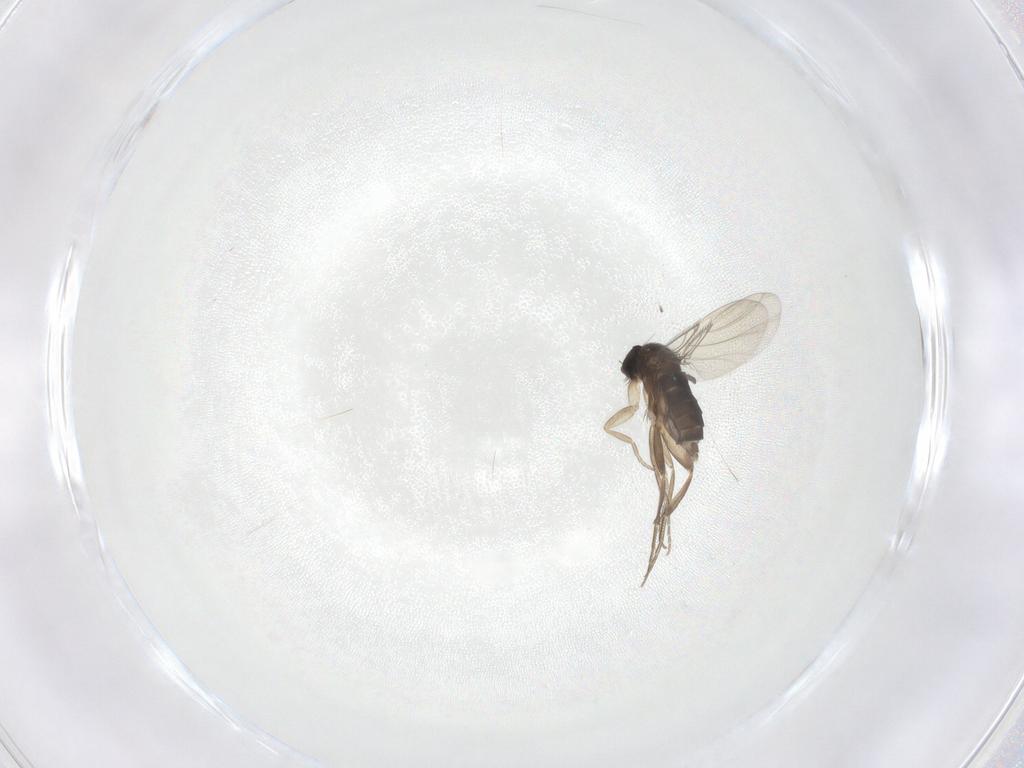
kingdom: Animalia
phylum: Arthropoda
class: Insecta
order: Diptera
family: Phoridae
